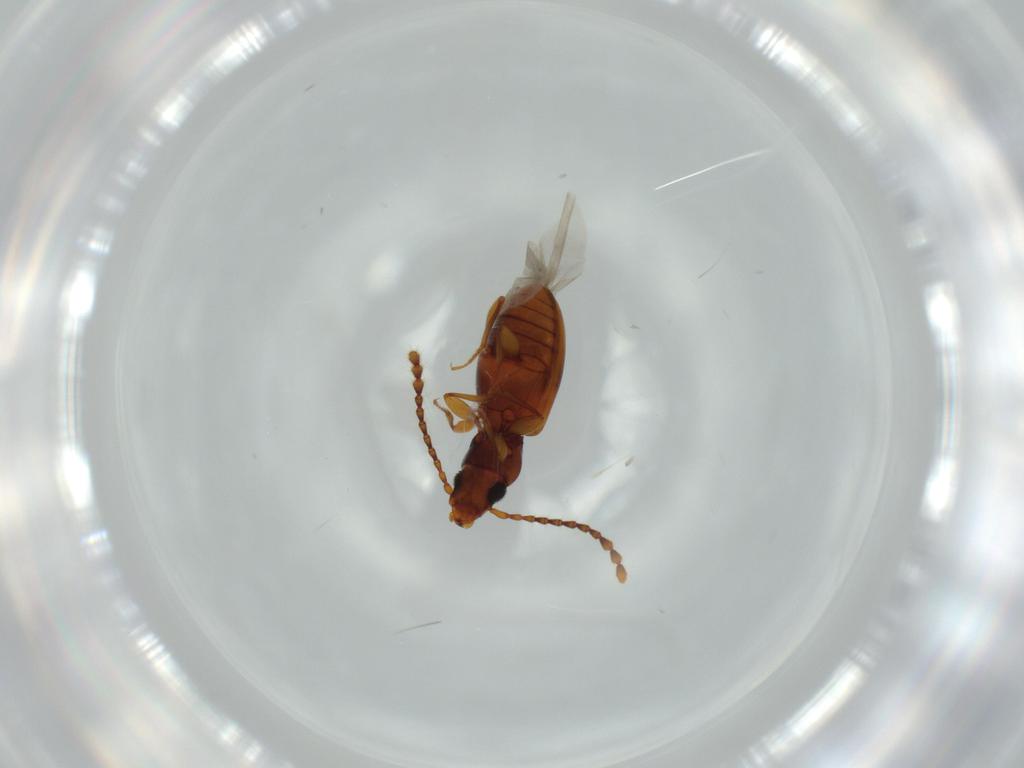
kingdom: Animalia
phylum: Arthropoda
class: Insecta
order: Coleoptera
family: Laemophloeidae
